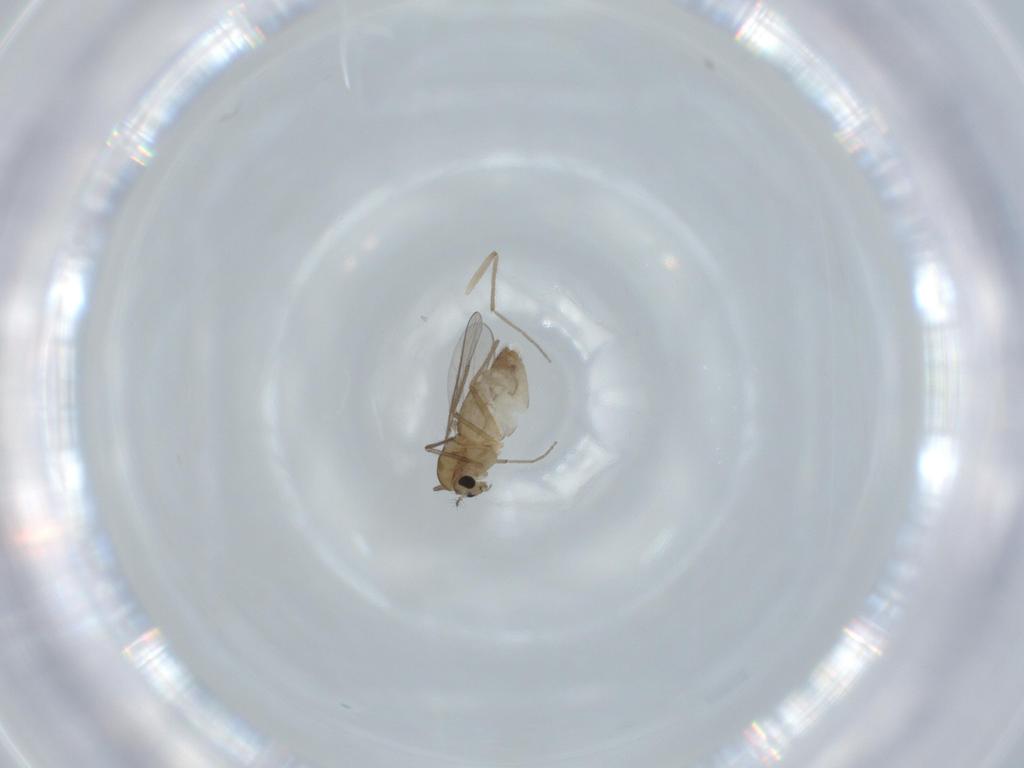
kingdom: Animalia
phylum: Arthropoda
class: Insecta
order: Diptera
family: Chironomidae
